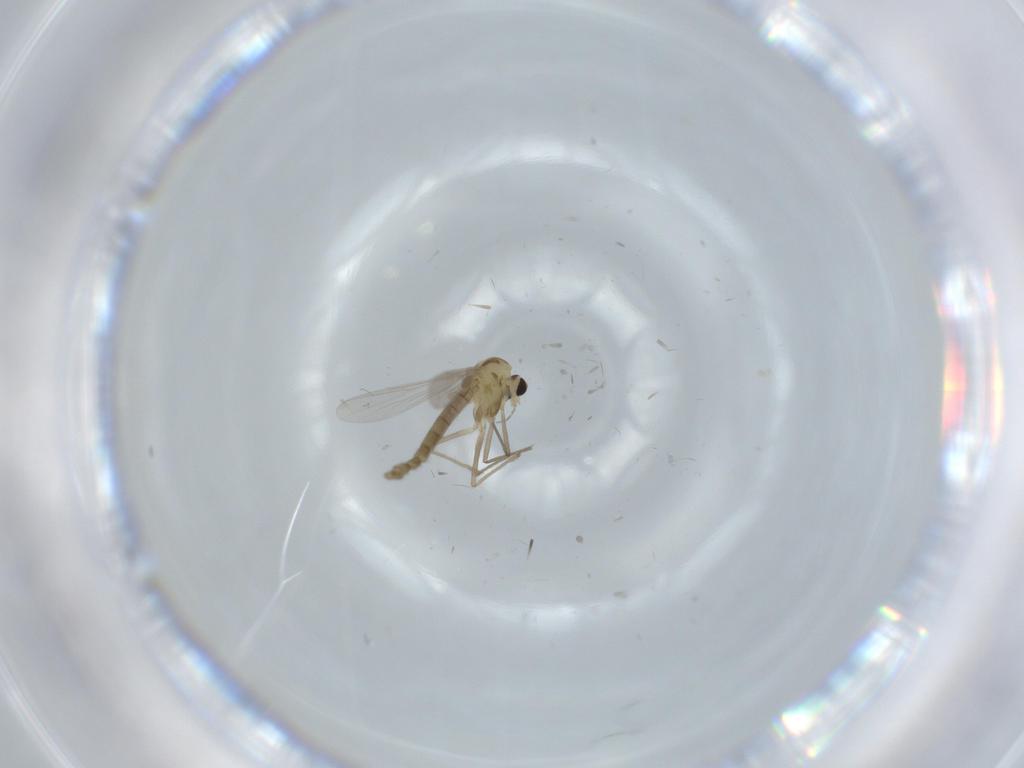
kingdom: Animalia
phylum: Arthropoda
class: Insecta
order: Diptera
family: Chironomidae
